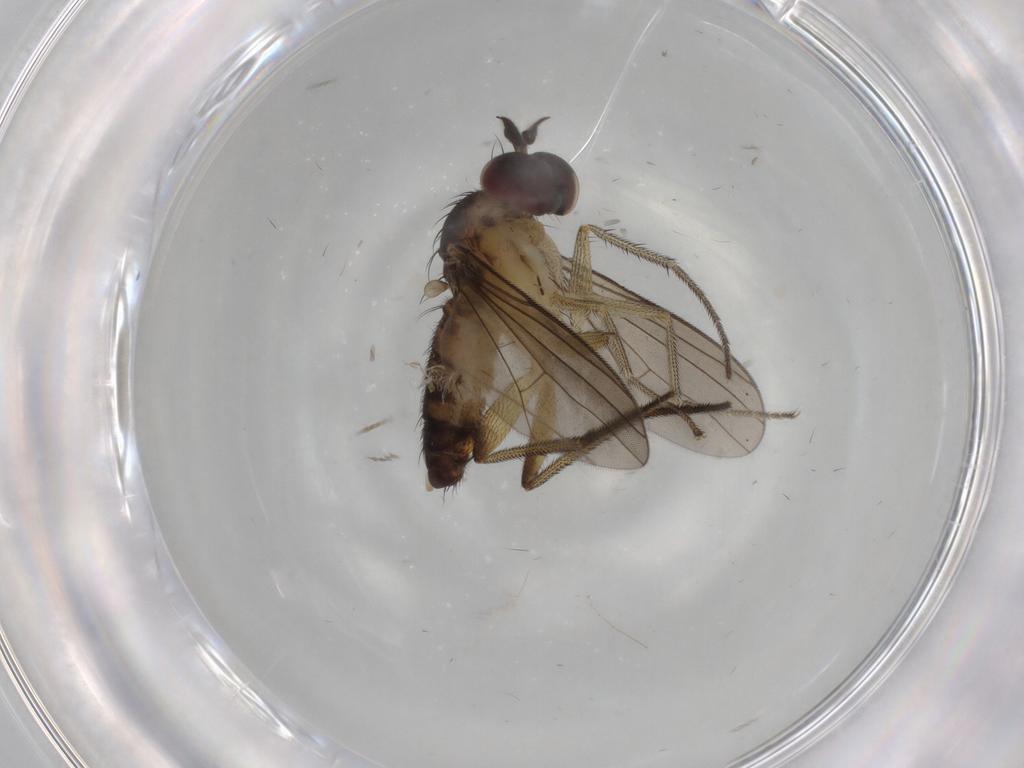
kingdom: Animalia
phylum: Arthropoda
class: Insecta
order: Diptera
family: Dolichopodidae
